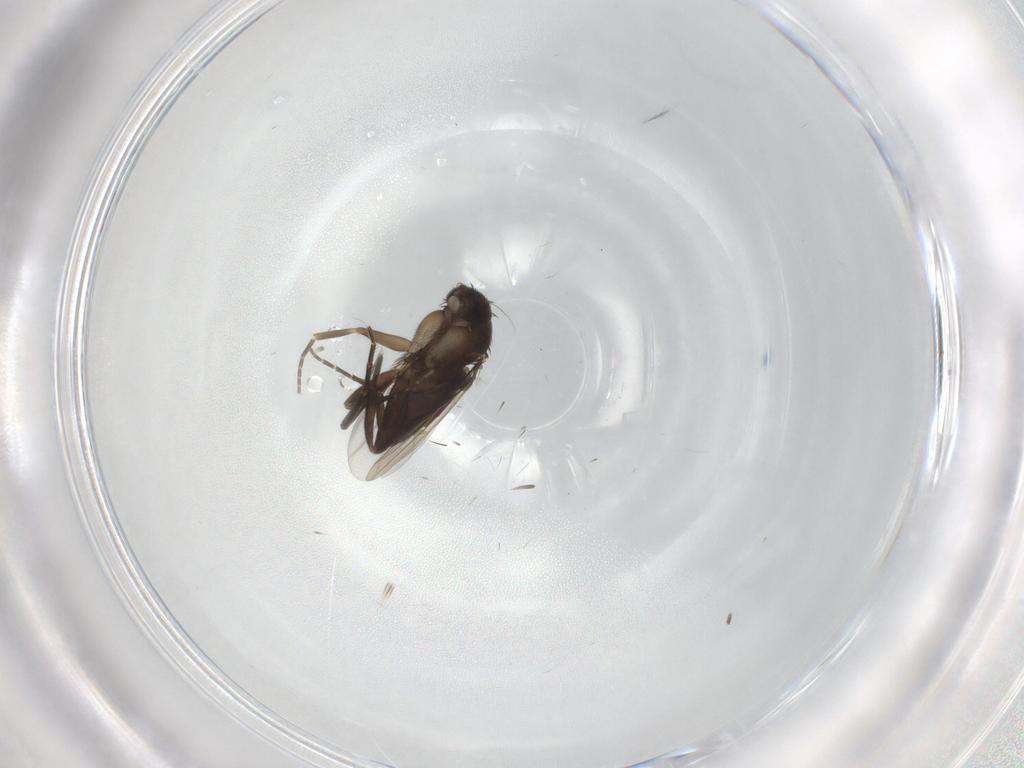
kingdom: Animalia
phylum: Arthropoda
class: Insecta
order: Diptera
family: Phoridae
